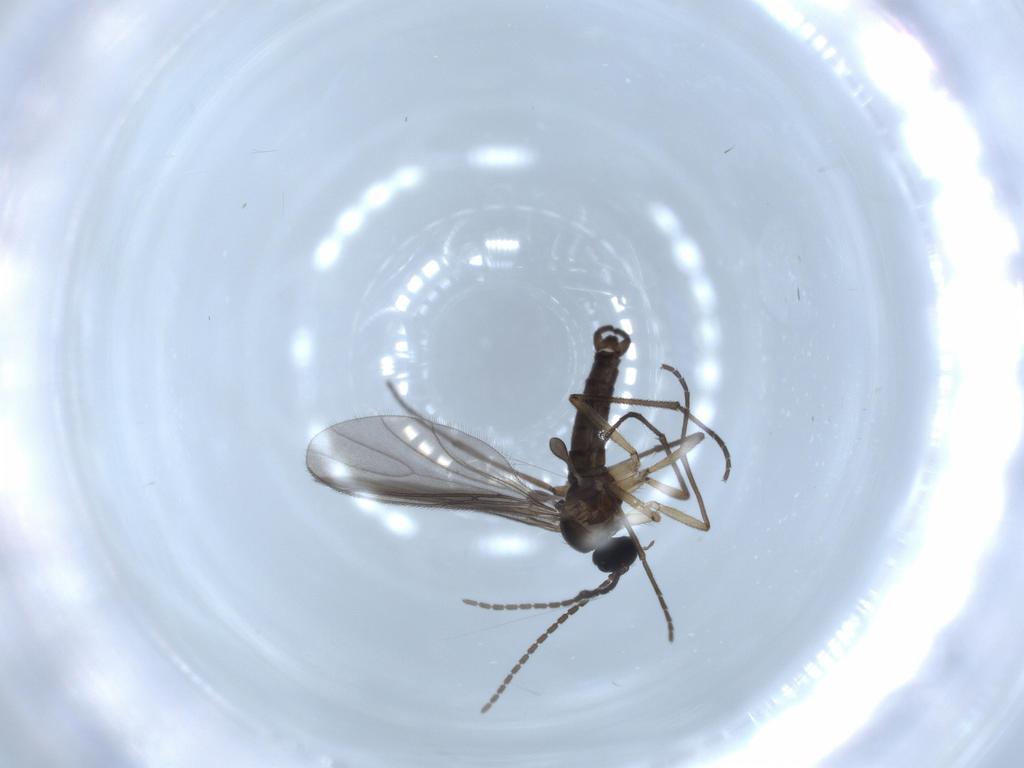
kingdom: Animalia
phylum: Arthropoda
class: Insecta
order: Diptera
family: Sciaridae
